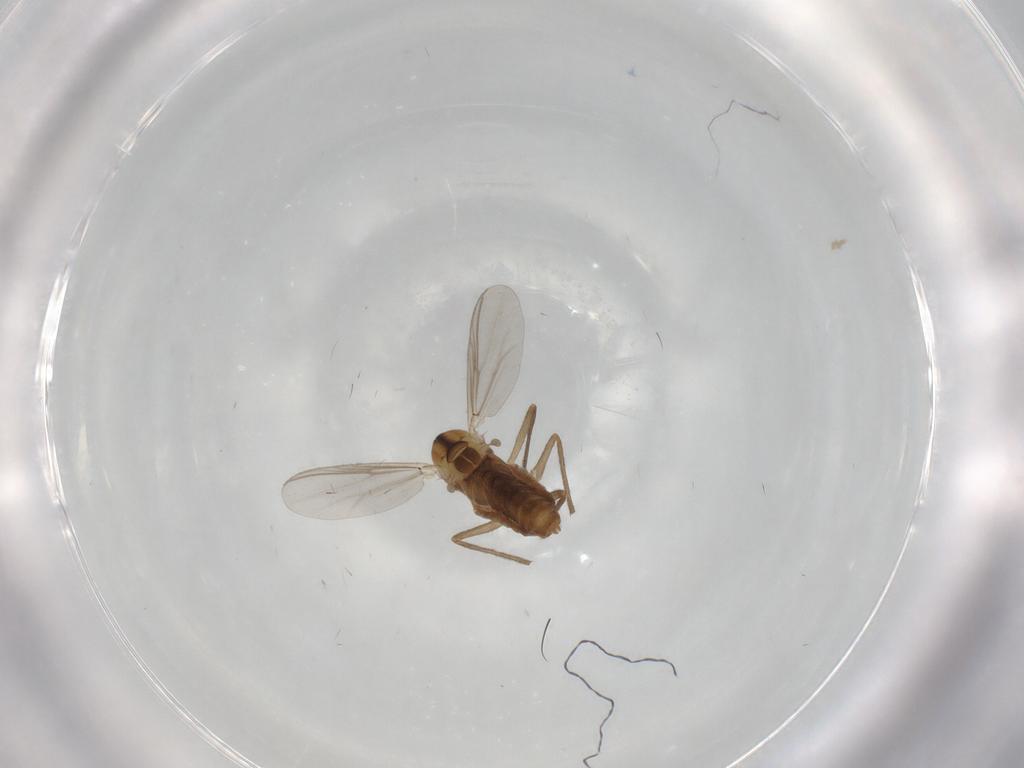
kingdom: Animalia
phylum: Arthropoda
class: Insecta
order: Diptera
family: Chironomidae
